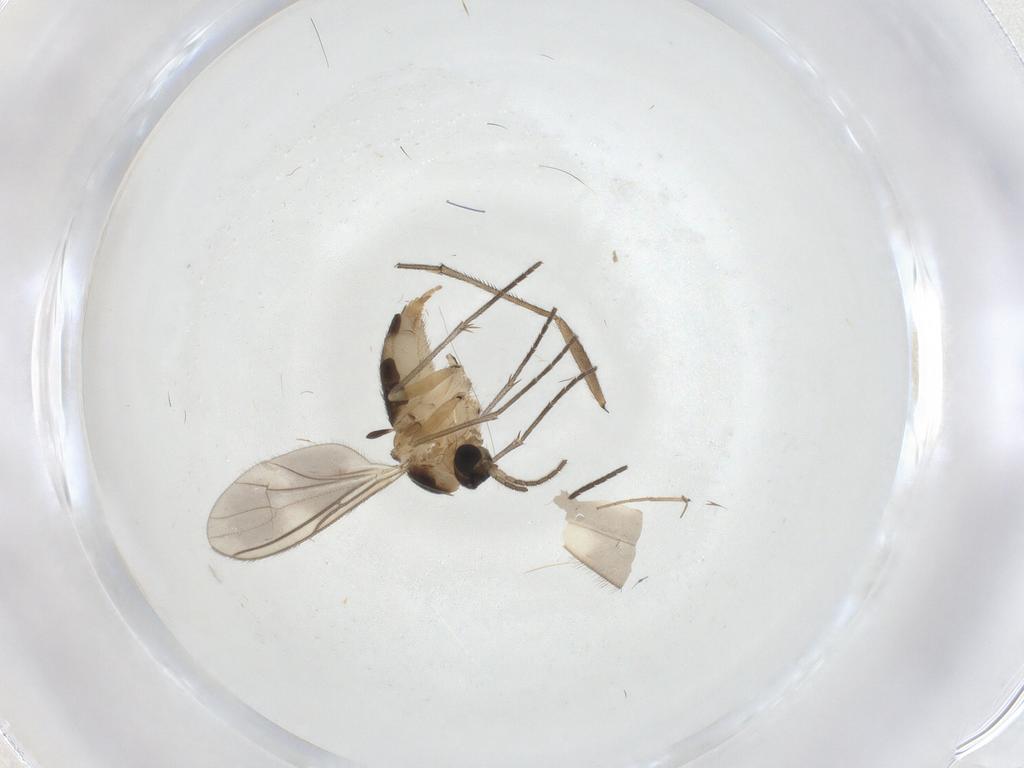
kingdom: Animalia
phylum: Arthropoda
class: Insecta
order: Diptera
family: Sciaridae
